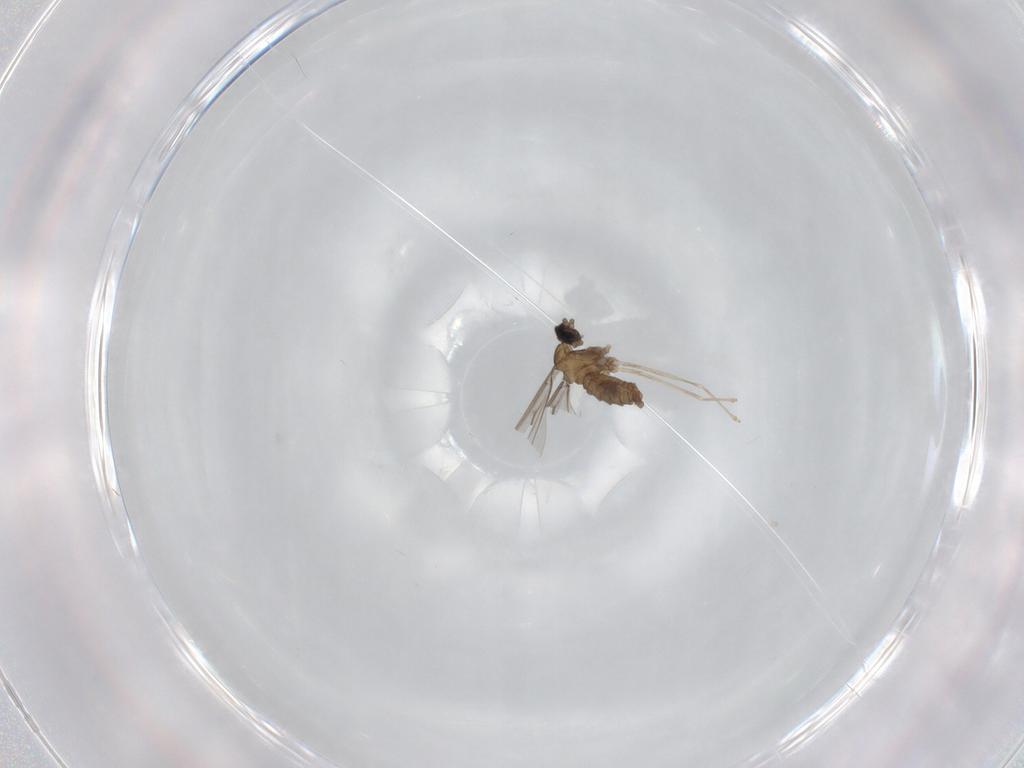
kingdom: Animalia
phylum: Arthropoda
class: Insecta
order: Diptera
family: Cecidomyiidae
